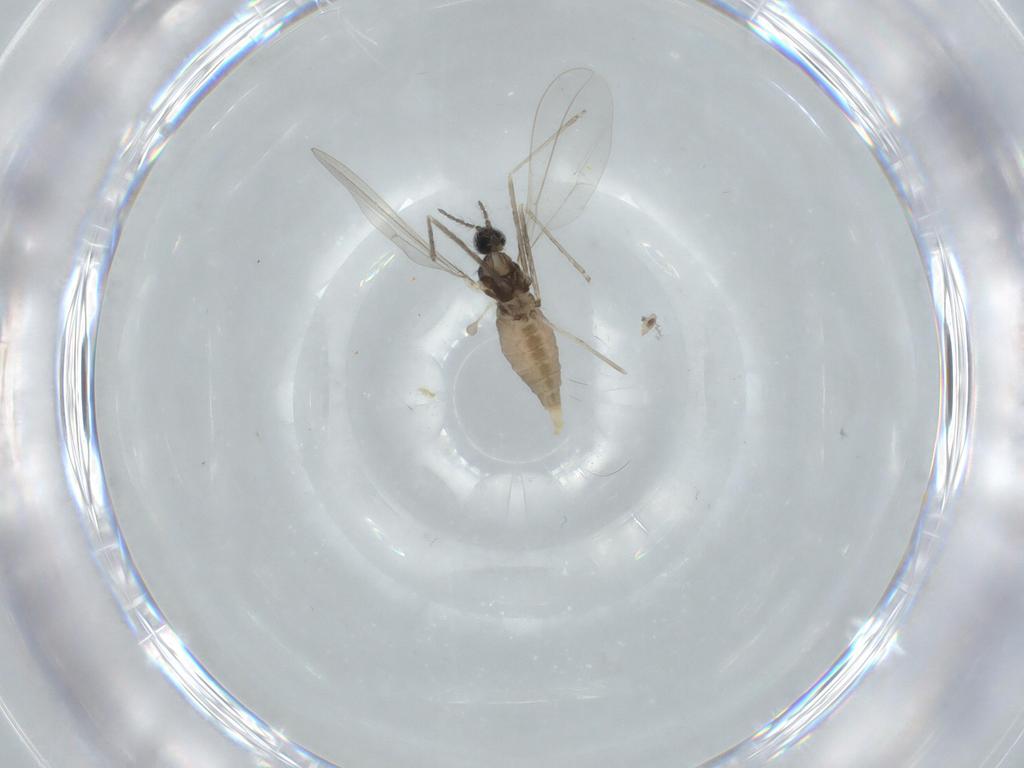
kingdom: Animalia
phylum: Arthropoda
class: Insecta
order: Diptera
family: Cecidomyiidae
